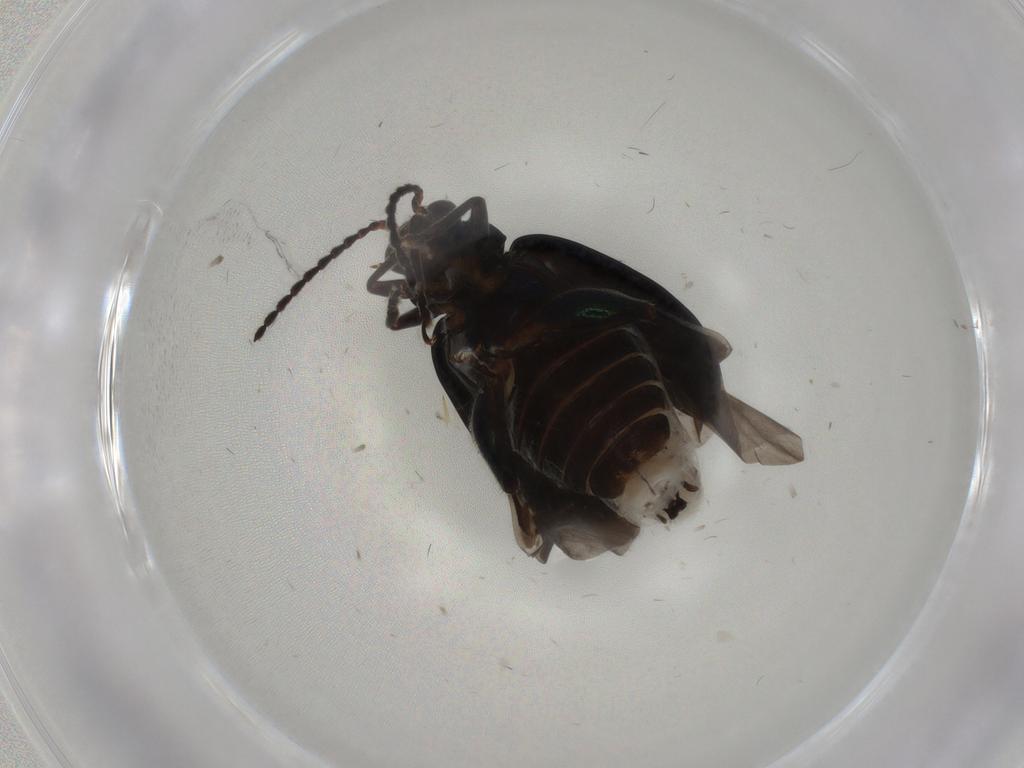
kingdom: Animalia
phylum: Arthropoda
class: Insecta
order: Coleoptera
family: Chrysomelidae
